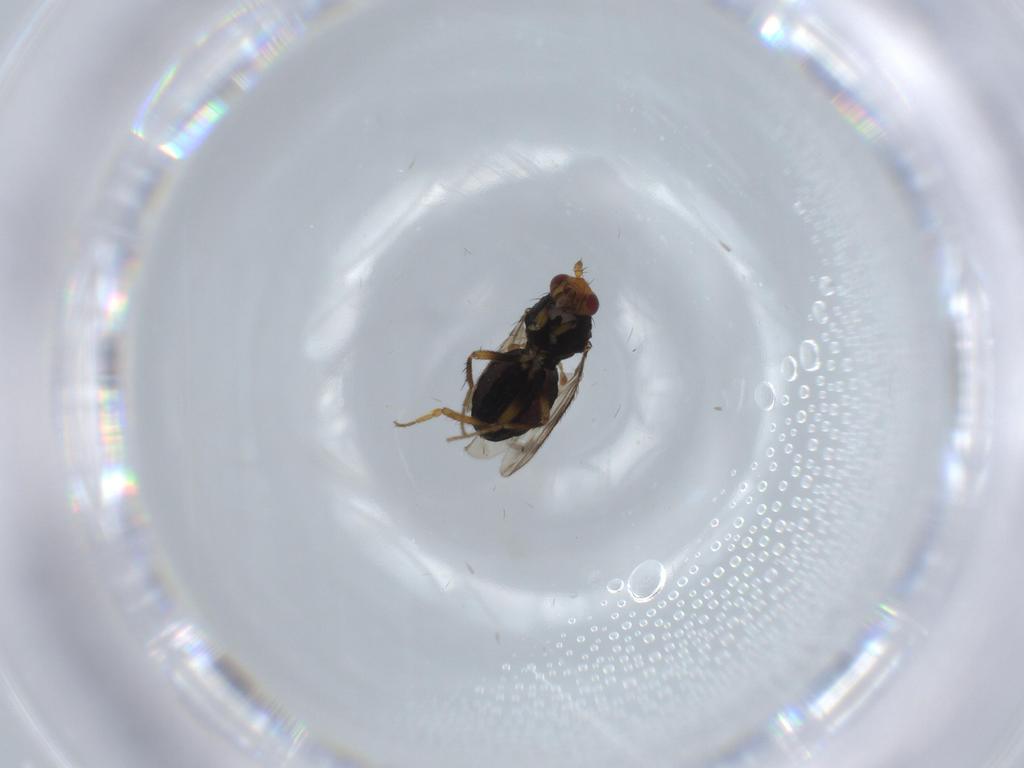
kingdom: Animalia
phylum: Arthropoda
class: Insecta
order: Diptera
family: Sphaeroceridae
